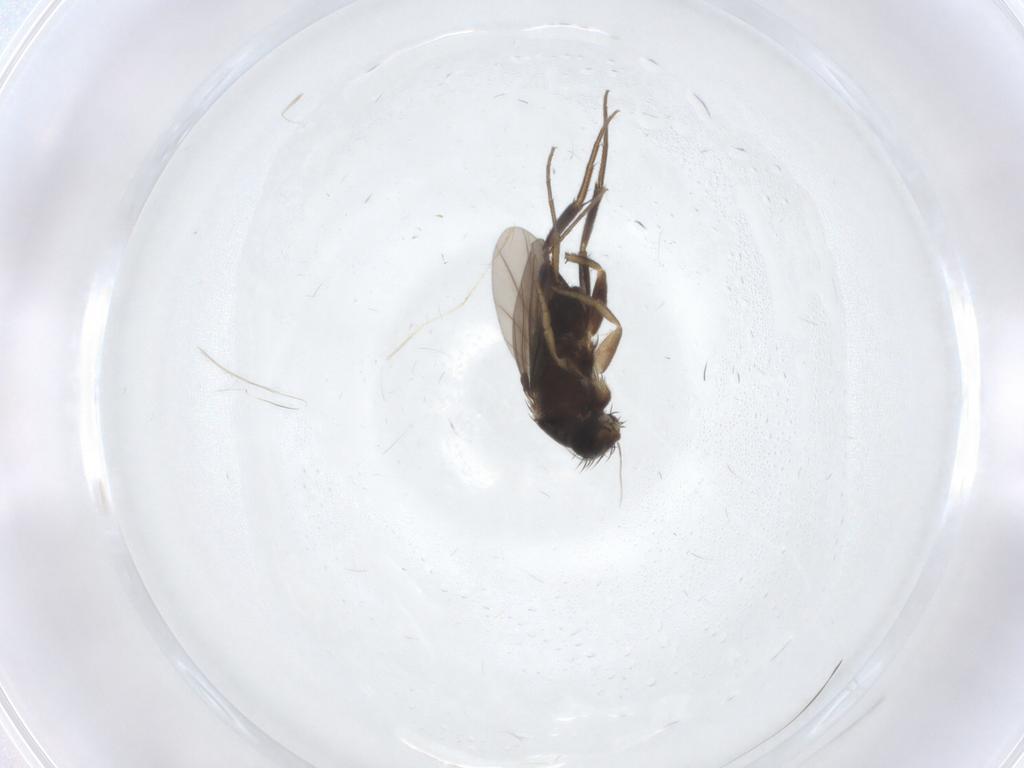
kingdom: Animalia
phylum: Arthropoda
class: Insecta
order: Diptera
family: Phoridae
